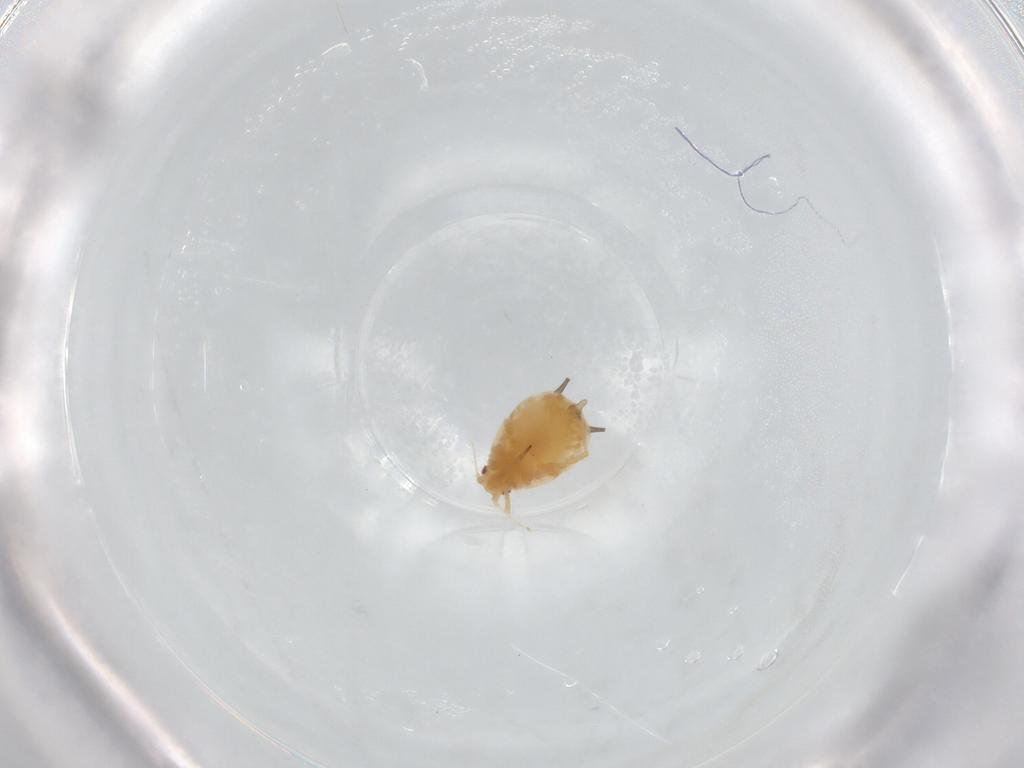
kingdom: Animalia
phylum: Arthropoda
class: Insecta
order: Hemiptera
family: Aphididae
